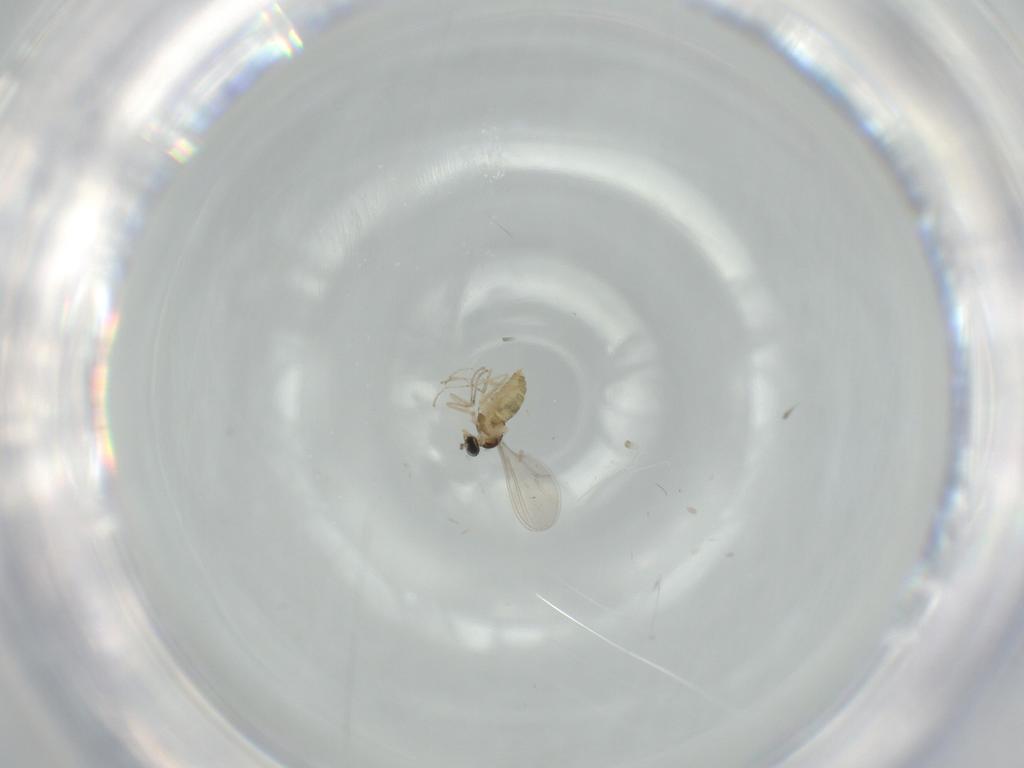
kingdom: Animalia
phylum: Arthropoda
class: Insecta
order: Diptera
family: Cecidomyiidae
